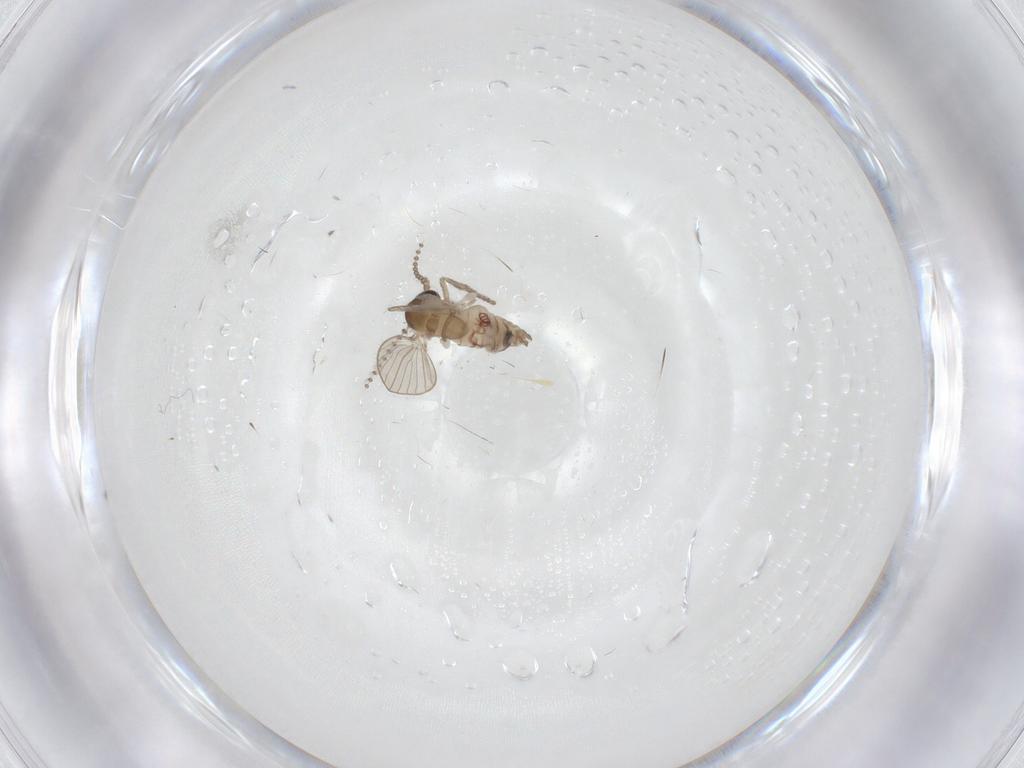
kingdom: Animalia
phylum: Arthropoda
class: Insecta
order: Diptera
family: Psychodidae
